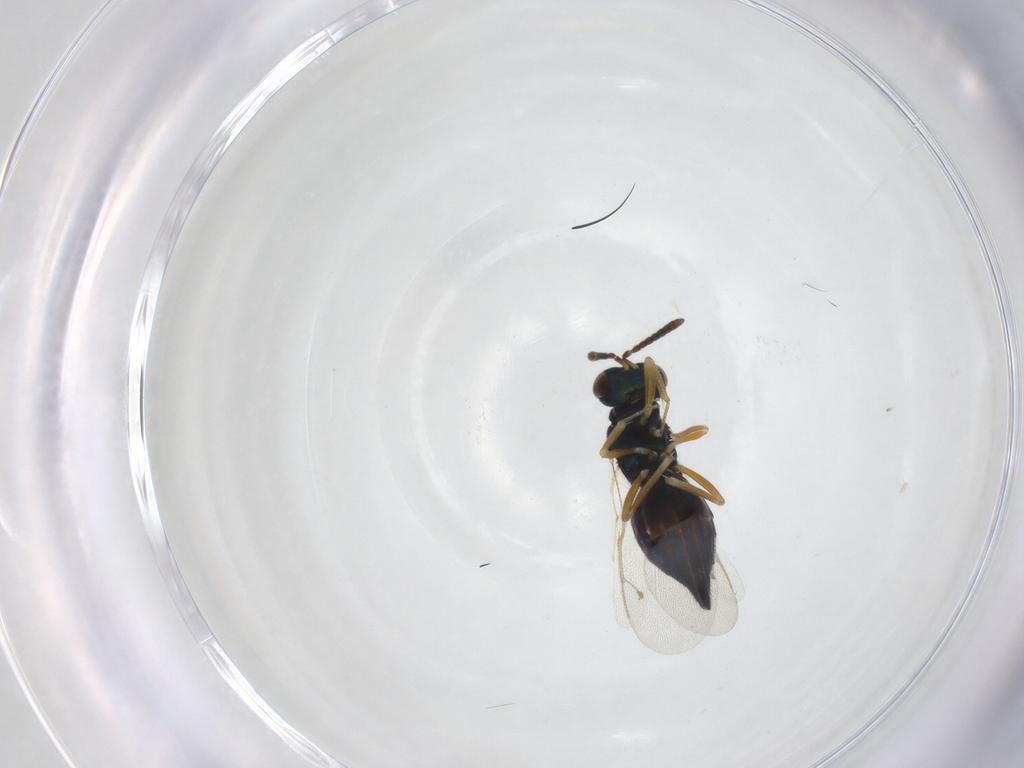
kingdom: Animalia
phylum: Arthropoda
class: Insecta
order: Hymenoptera
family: Pteromalidae
